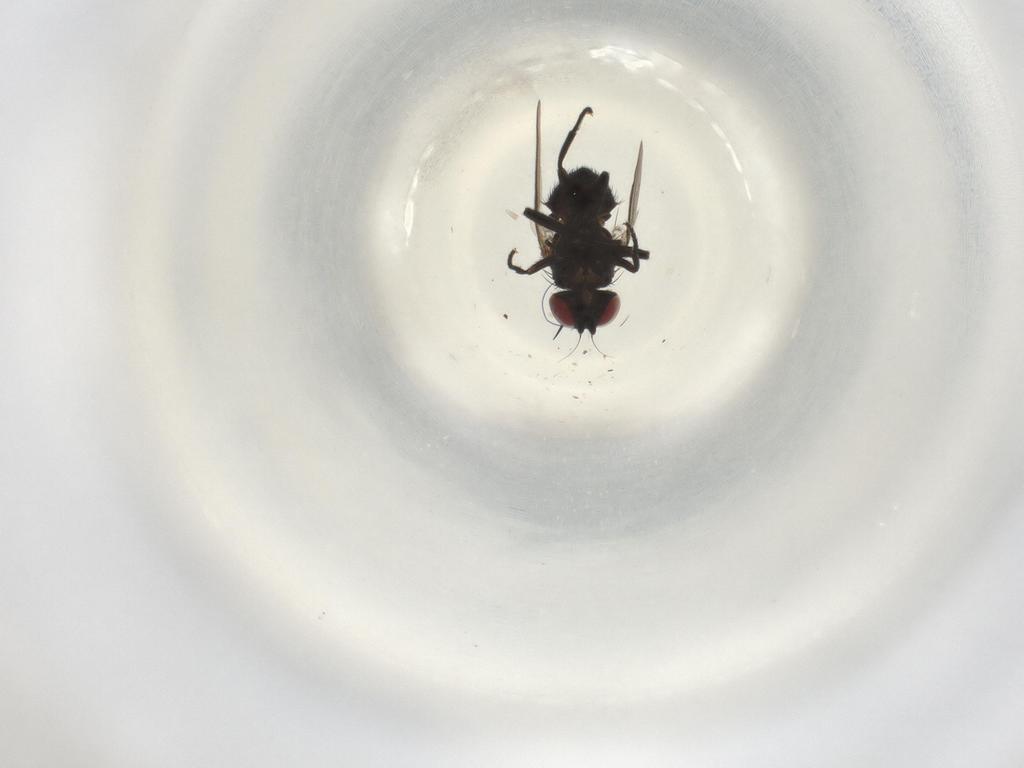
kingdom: Animalia
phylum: Arthropoda
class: Insecta
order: Diptera
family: Agromyzidae
